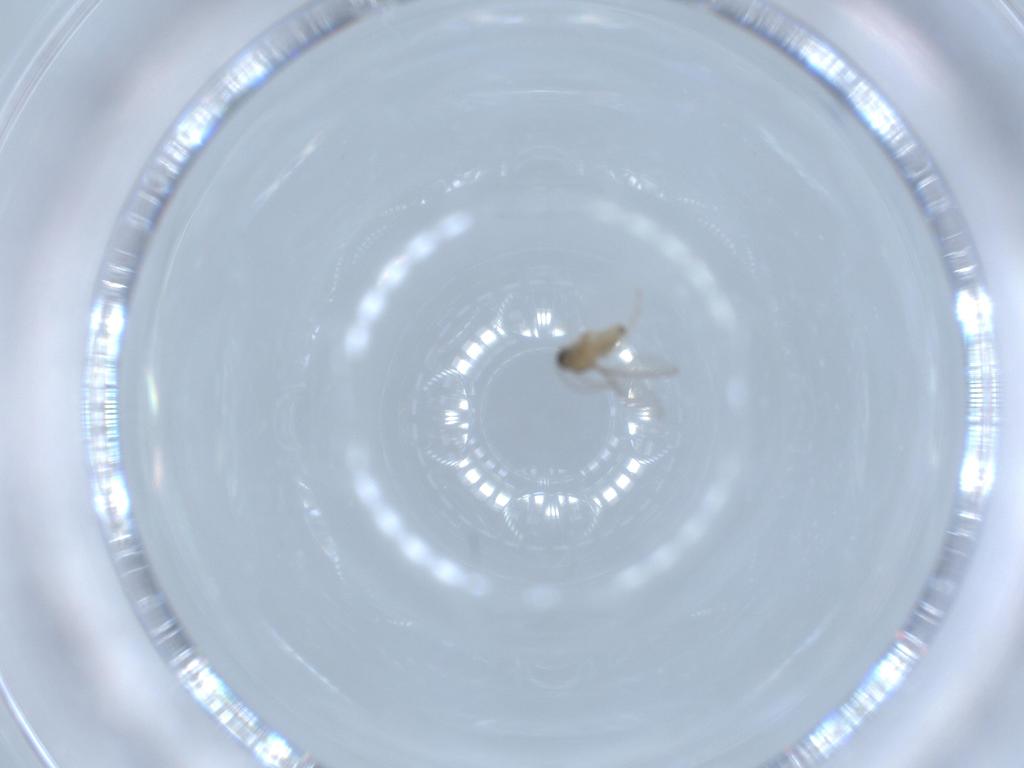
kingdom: Animalia
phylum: Arthropoda
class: Insecta
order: Diptera
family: Cecidomyiidae
